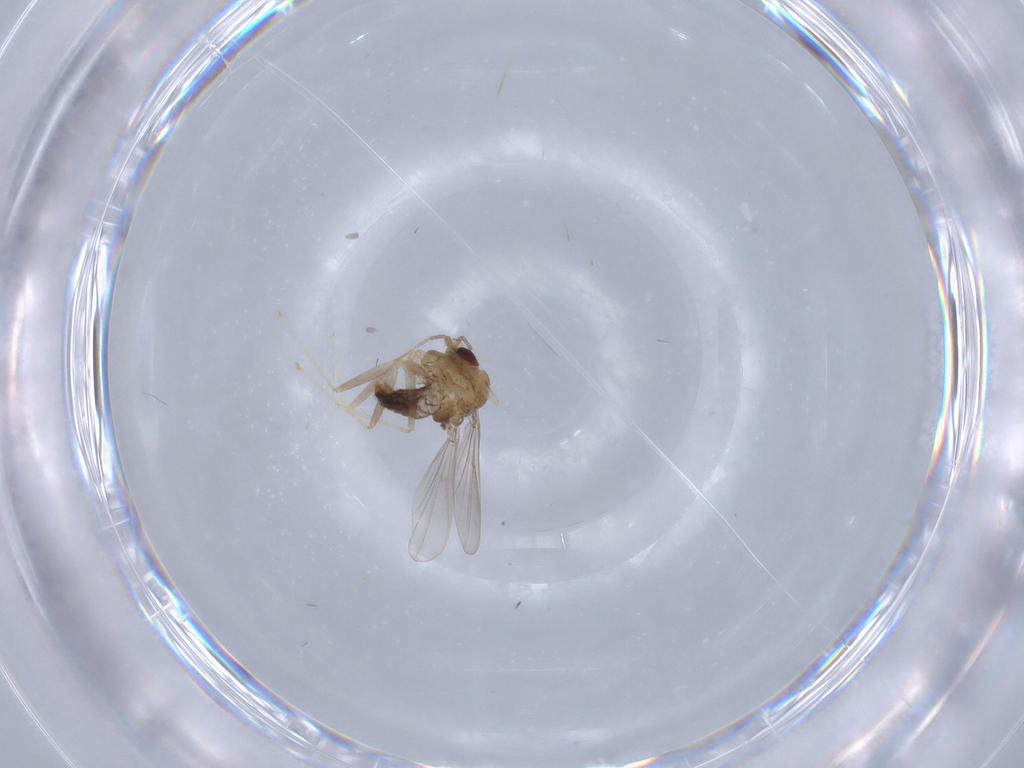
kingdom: Animalia
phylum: Arthropoda
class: Insecta
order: Diptera
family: Chironomidae
